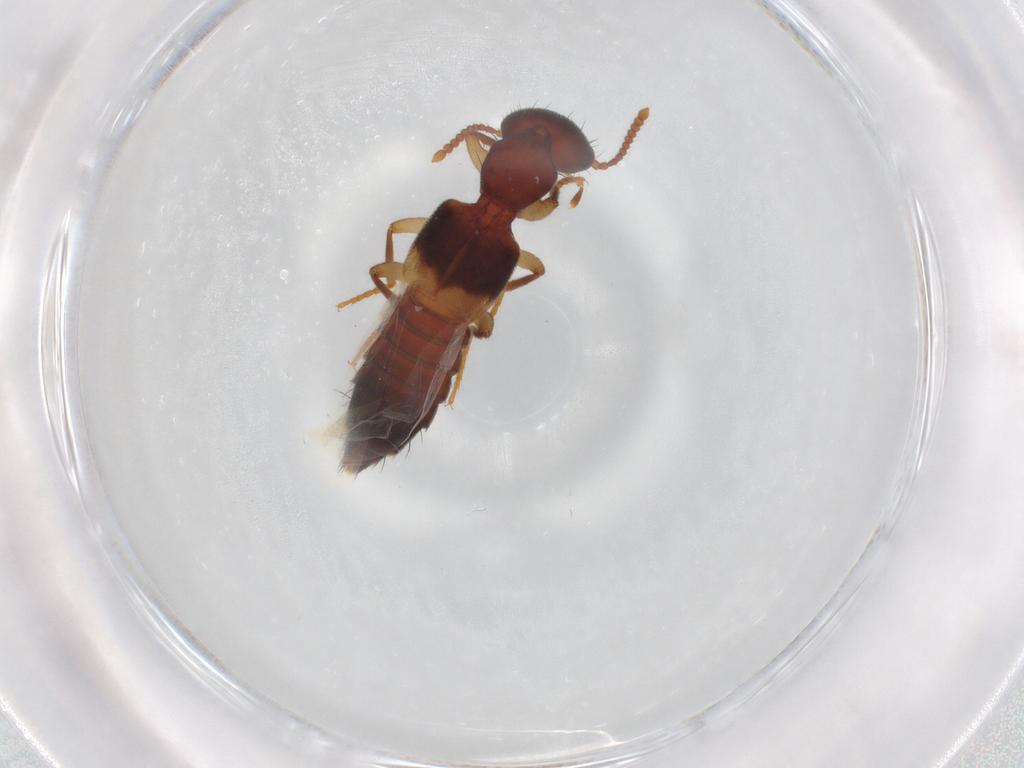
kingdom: Animalia
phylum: Arthropoda
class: Insecta
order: Coleoptera
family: Staphylinidae
